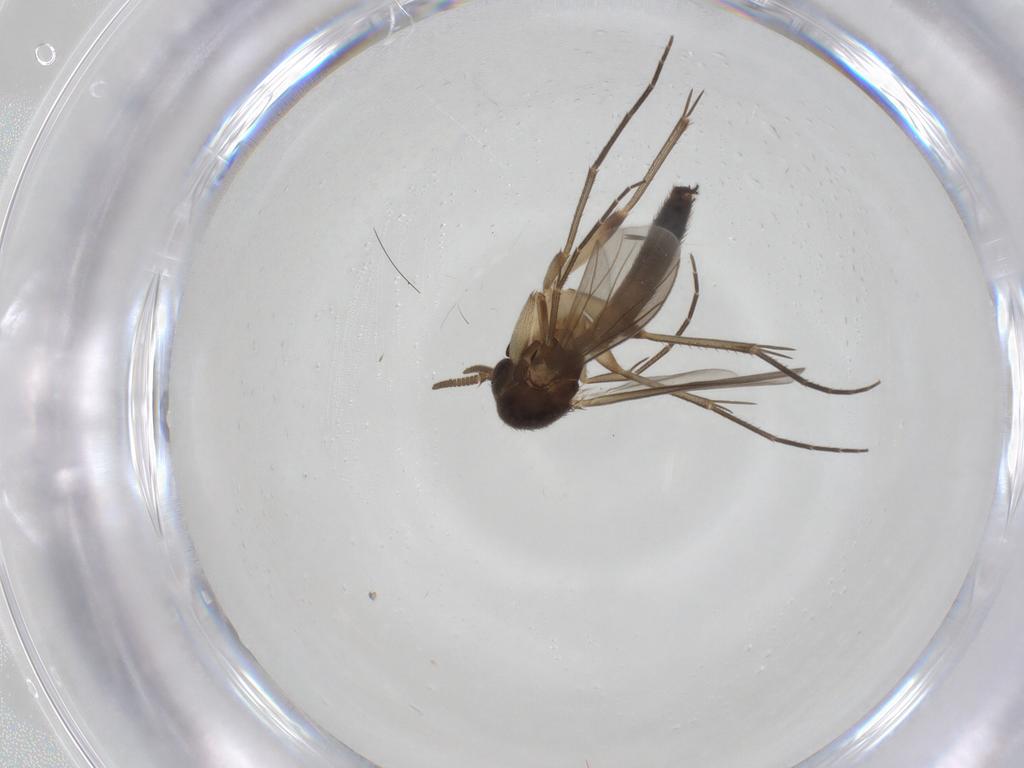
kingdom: Animalia
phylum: Arthropoda
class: Insecta
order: Diptera
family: Mycetophilidae
